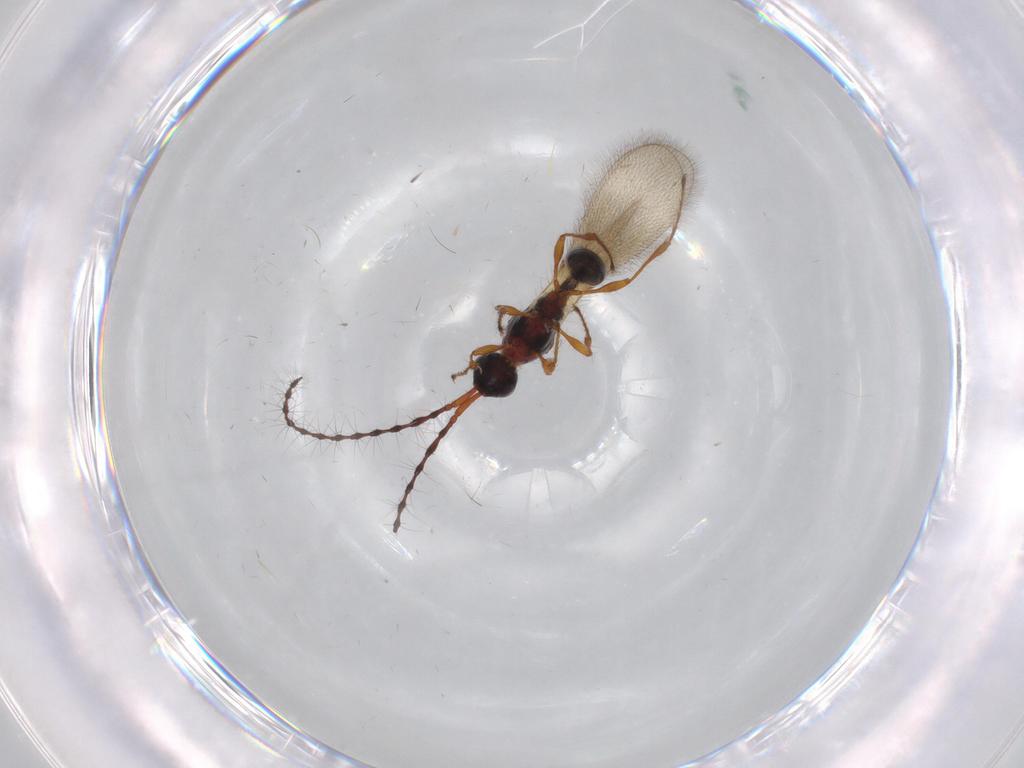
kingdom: Animalia
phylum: Arthropoda
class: Insecta
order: Hymenoptera
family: Diapriidae
